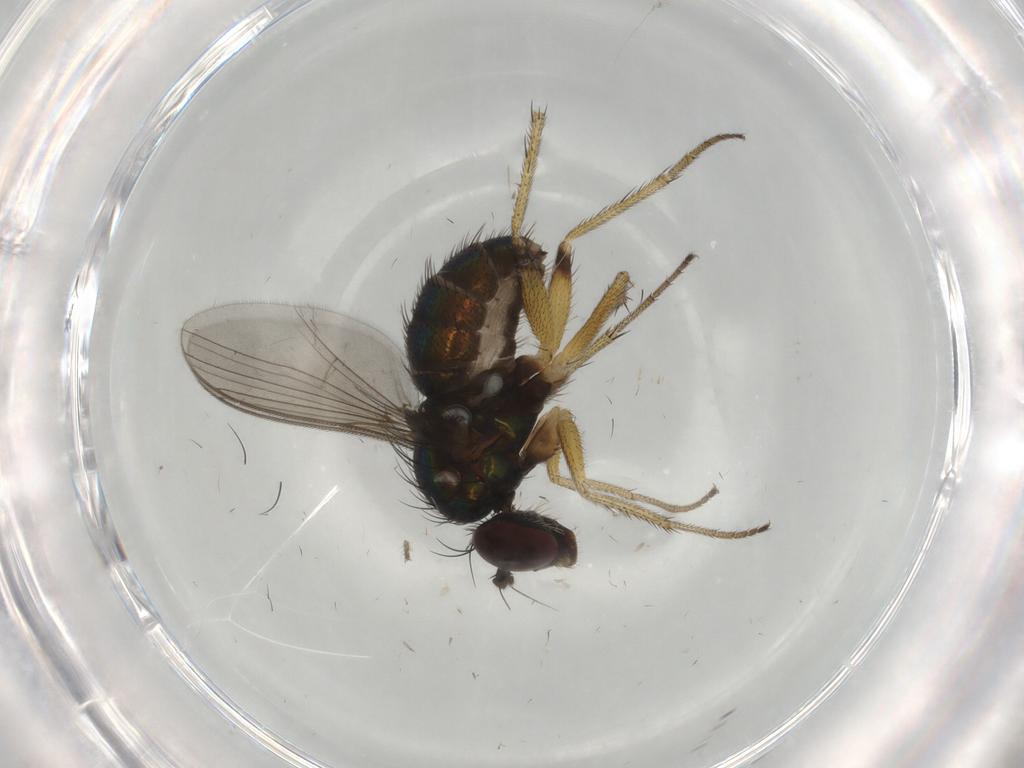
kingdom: Animalia
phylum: Arthropoda
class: Insecta
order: Diptera
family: Dolichopodidae
